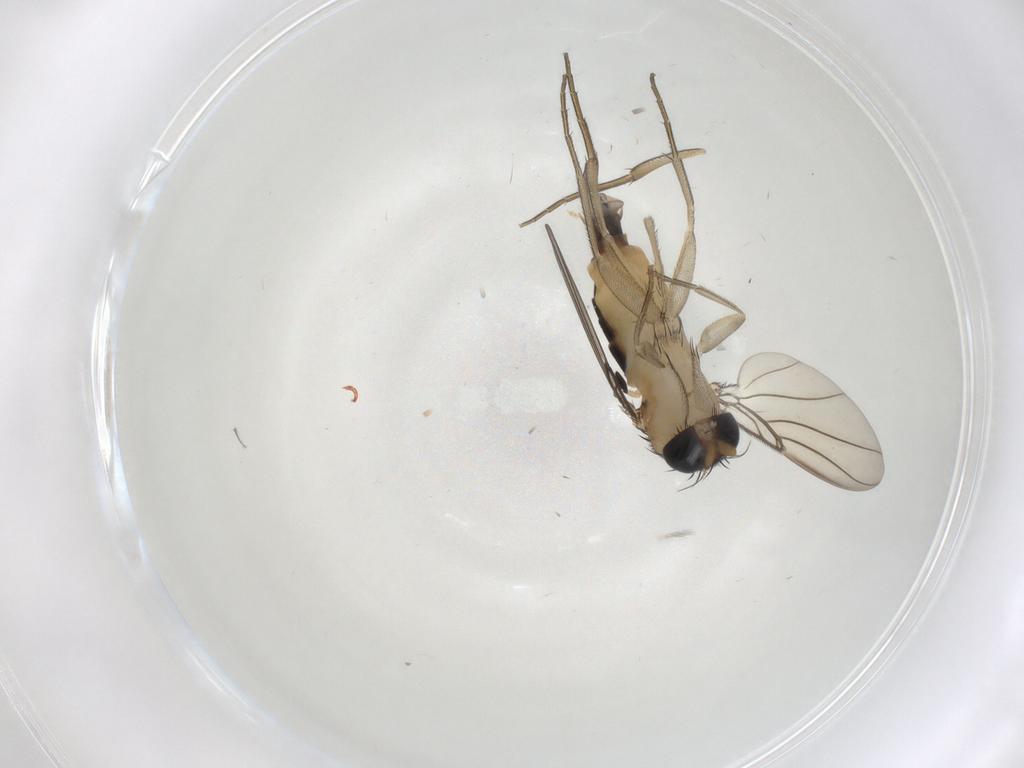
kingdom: Animalia
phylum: Arthropoda
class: Insecta
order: Diptera
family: Phoridae
